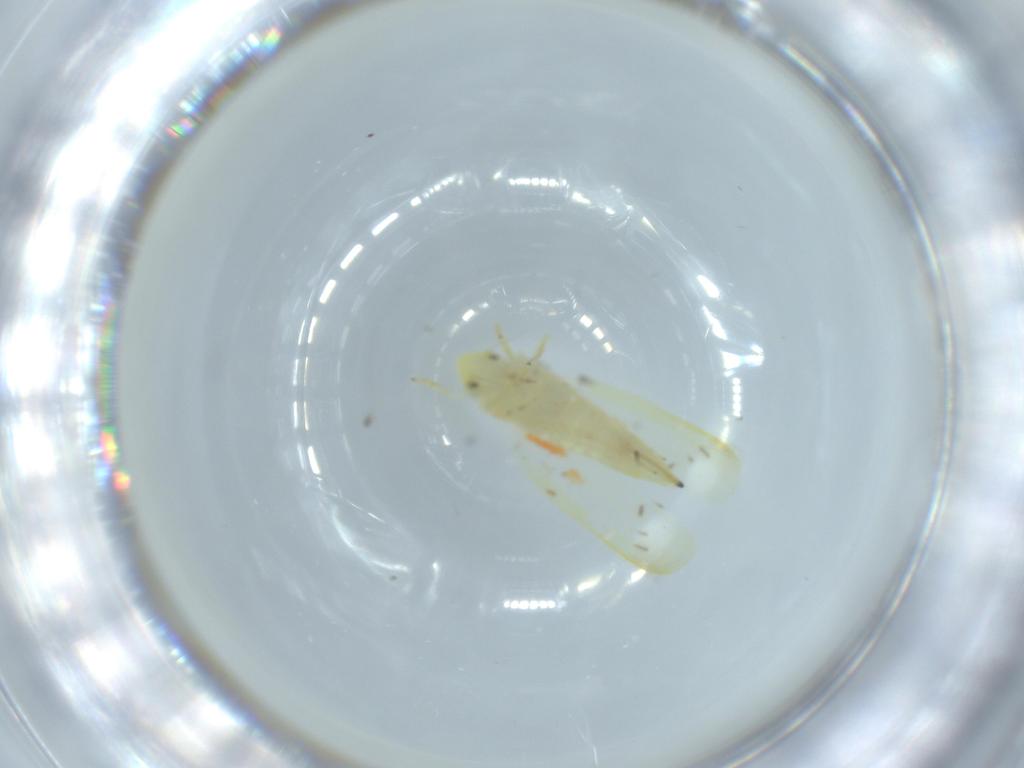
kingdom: Animalia
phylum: Arthropoda
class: Insecta
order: Hemiptera
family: Cicadellidae
